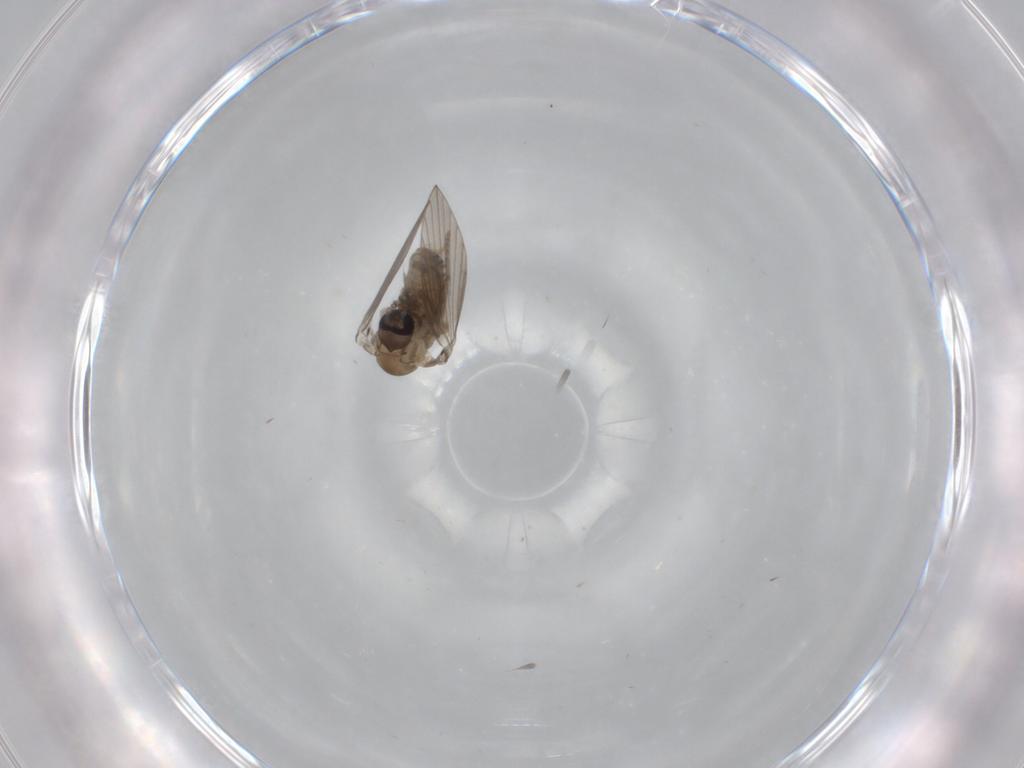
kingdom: Animalia
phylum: Arthropoda
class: Insecta
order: Diptera
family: Psychodidae
